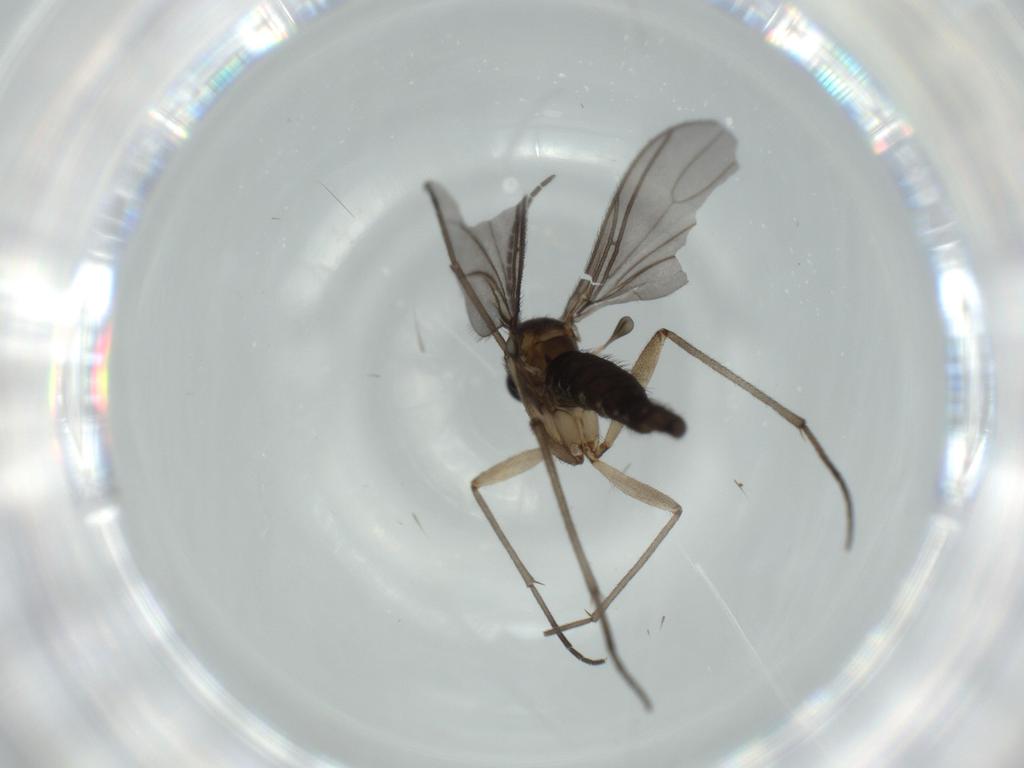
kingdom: Animalia
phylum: Arthropoda
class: Insecta
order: Diptera
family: Sciaridae
